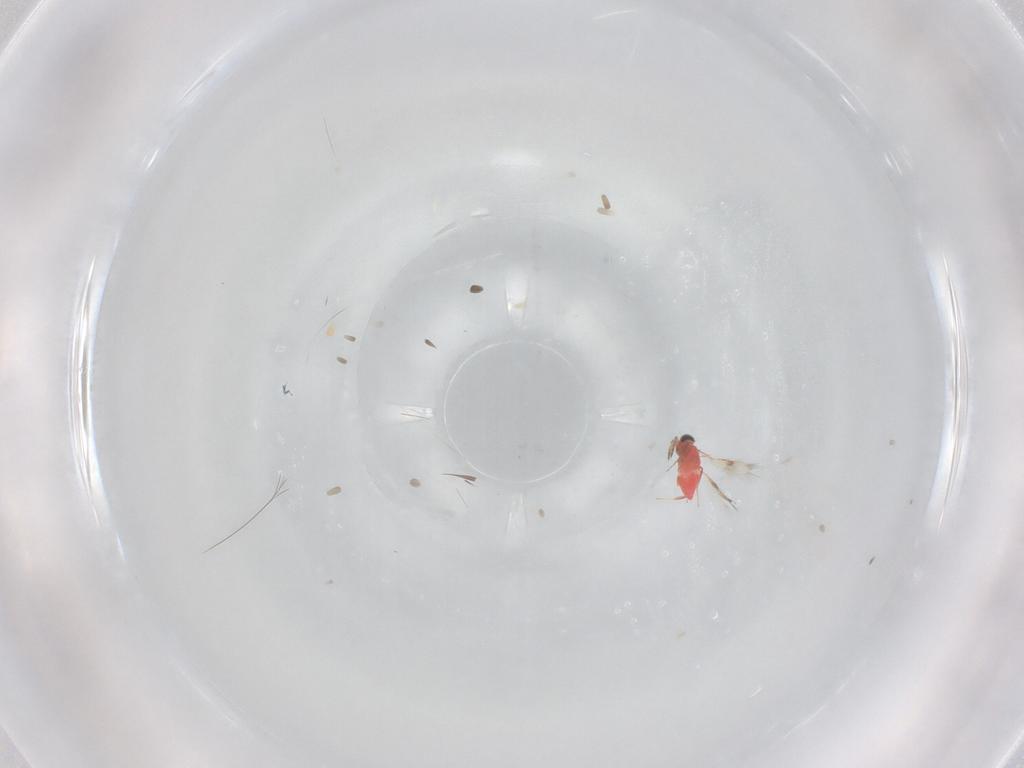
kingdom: Animalia
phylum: Arthropoda
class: Insecta
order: Hymenoptera
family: Trichogrammatidae
